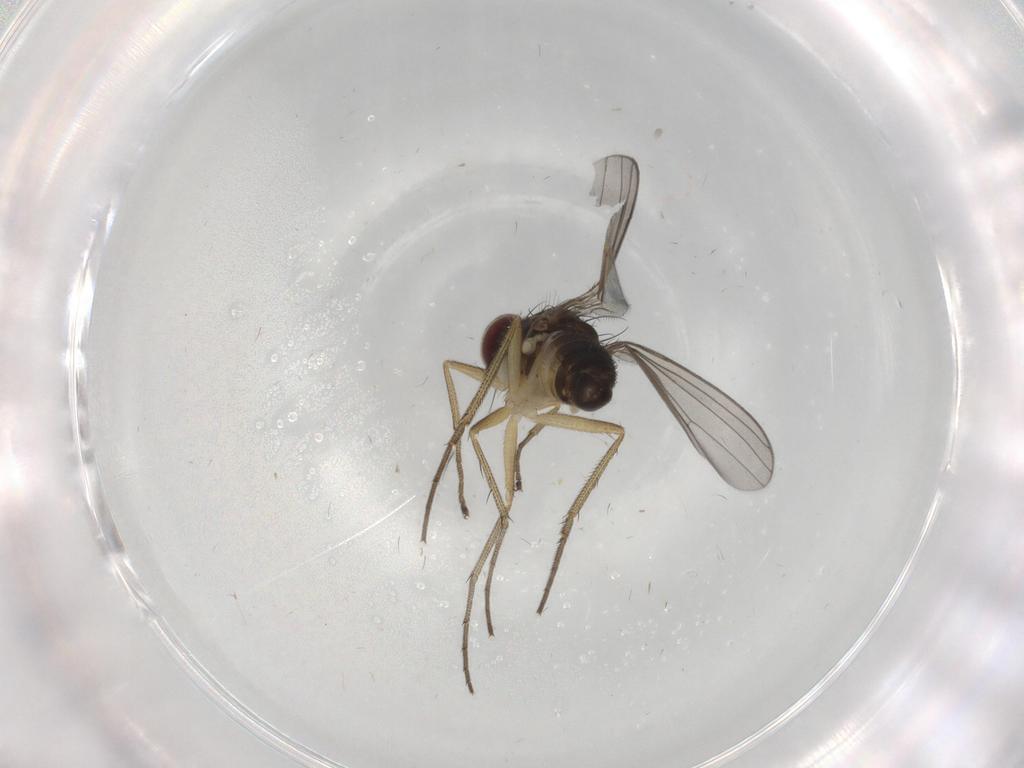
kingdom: Animalia
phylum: Arthropoda
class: Insecta
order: Diptera
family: Dolichopodidae
